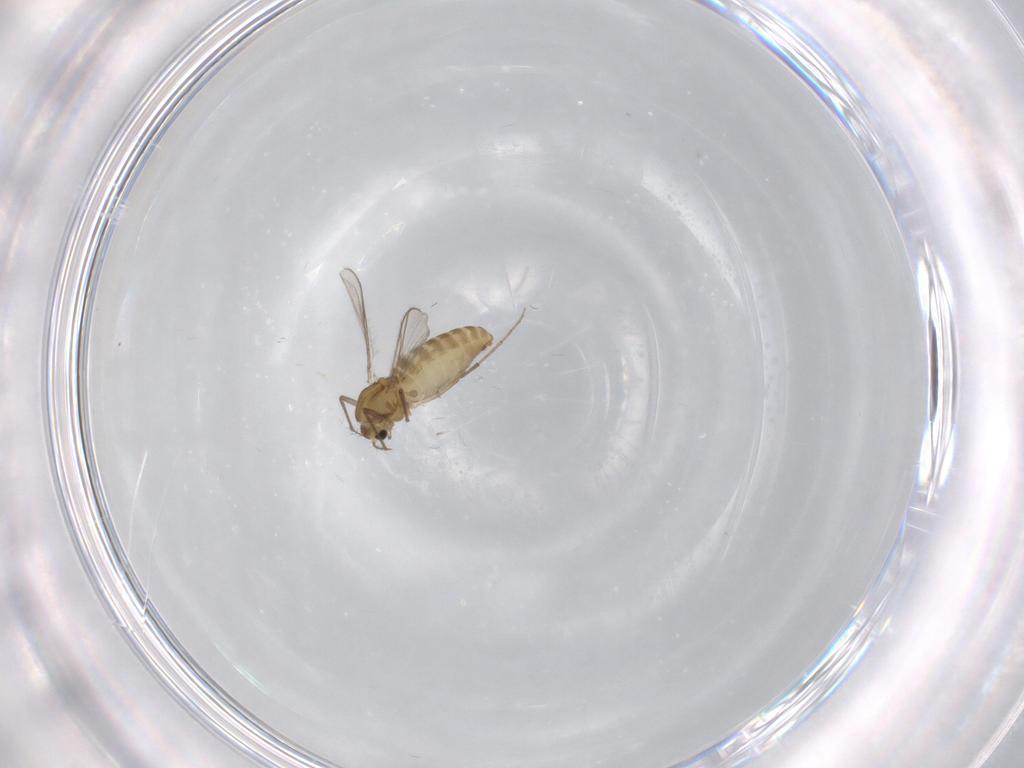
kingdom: Animalia
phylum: Arthropoda
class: Insecta
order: Diptera
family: Chironomidae
